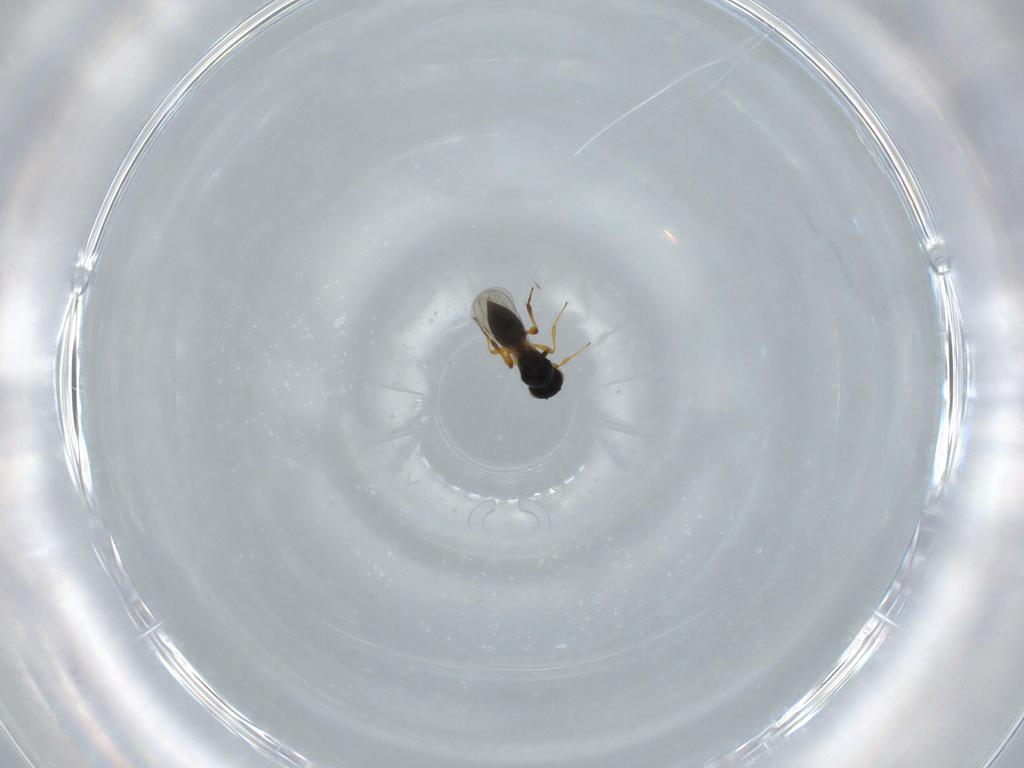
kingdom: Animalia
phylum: Arthropoda
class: Insecta
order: Hymenoptera
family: Platygastridae
